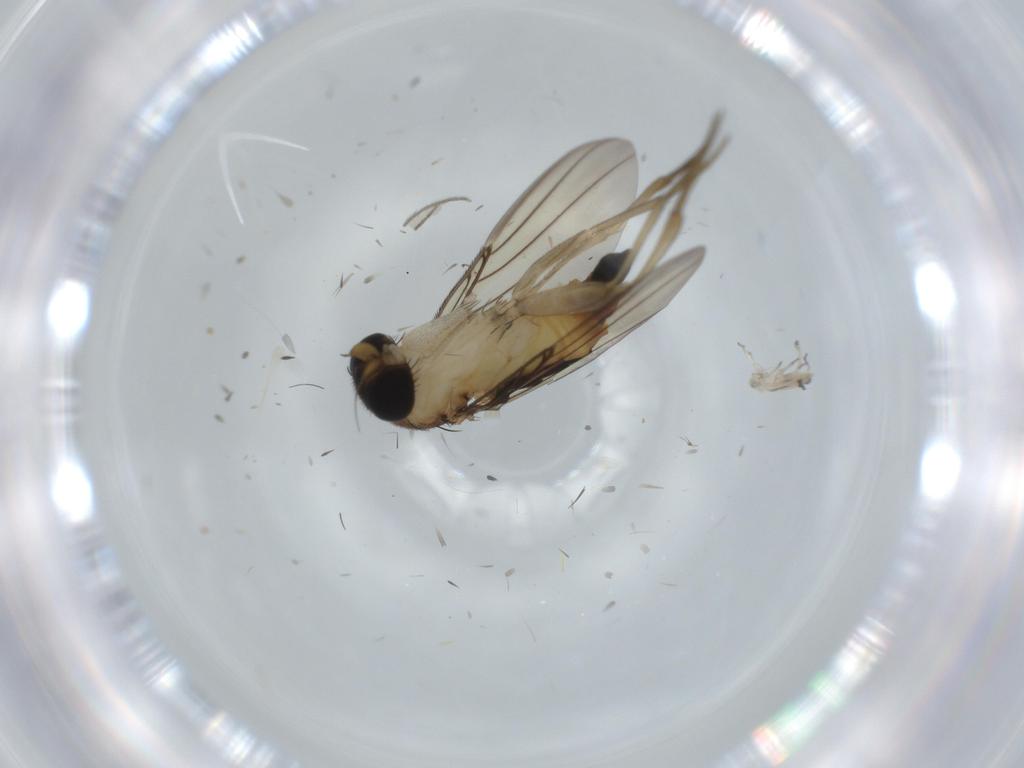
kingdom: Animalia
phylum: Arthropoda
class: Insecta
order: Diptera
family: Phoridae
